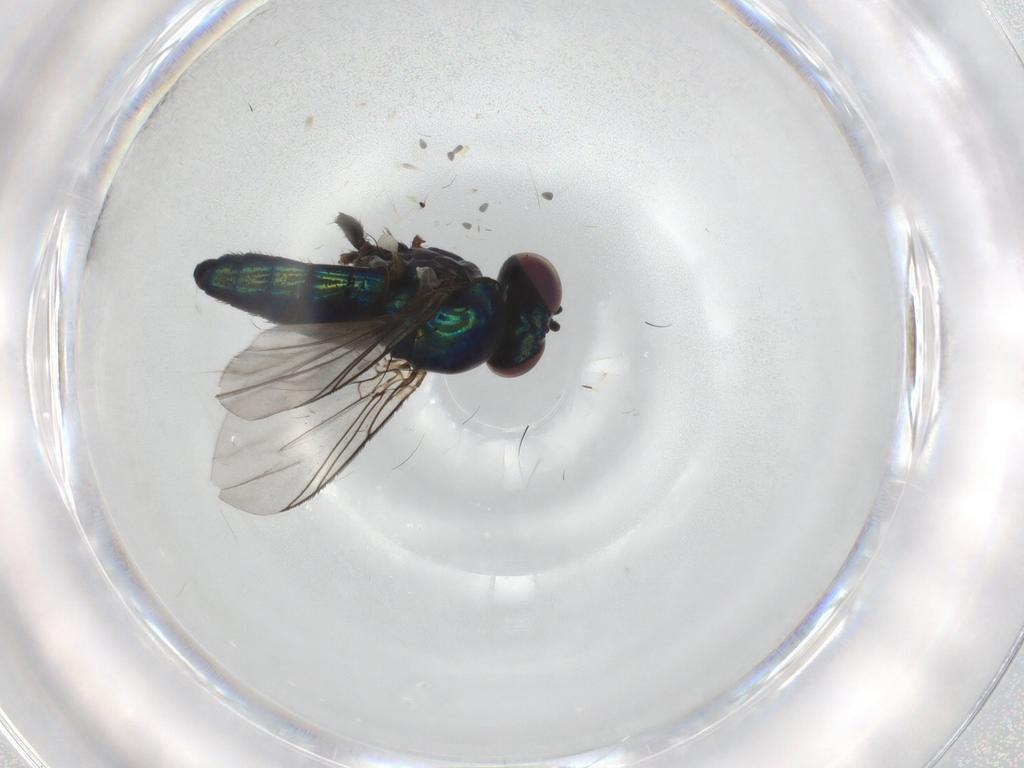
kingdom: Animalia
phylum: Arthropoda
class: Insecta
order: Diptera
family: Dolichopodidae
